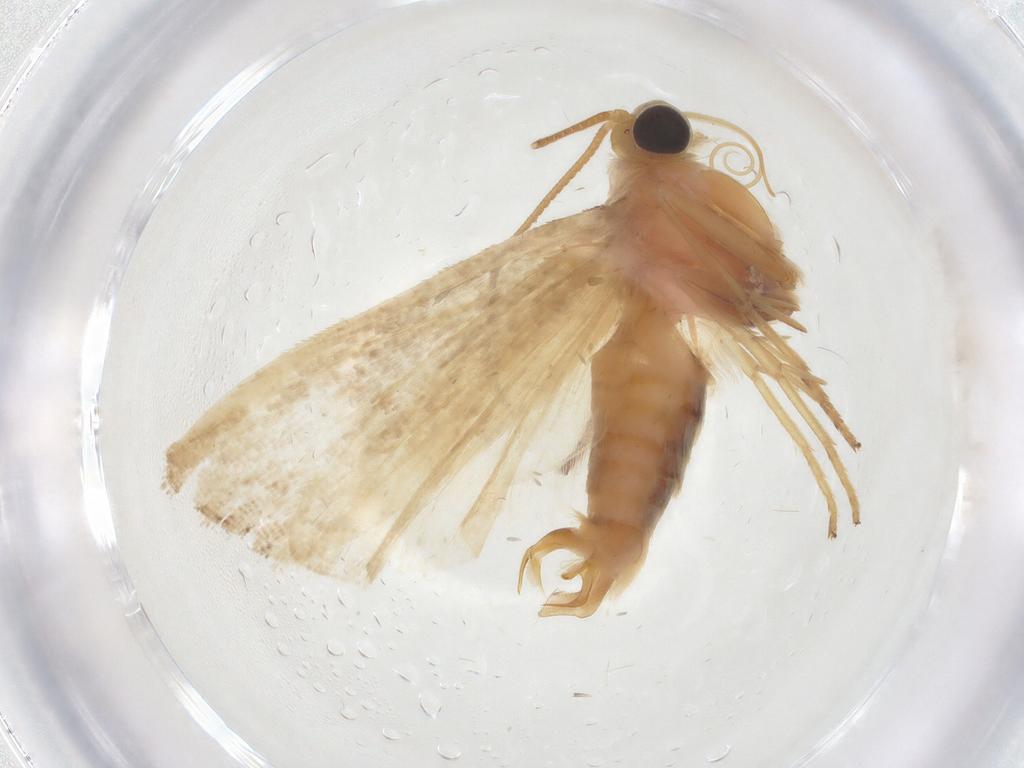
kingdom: Animalia
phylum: Arthropoda
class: Insecta
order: Lepidoptera
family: Pyralidae
